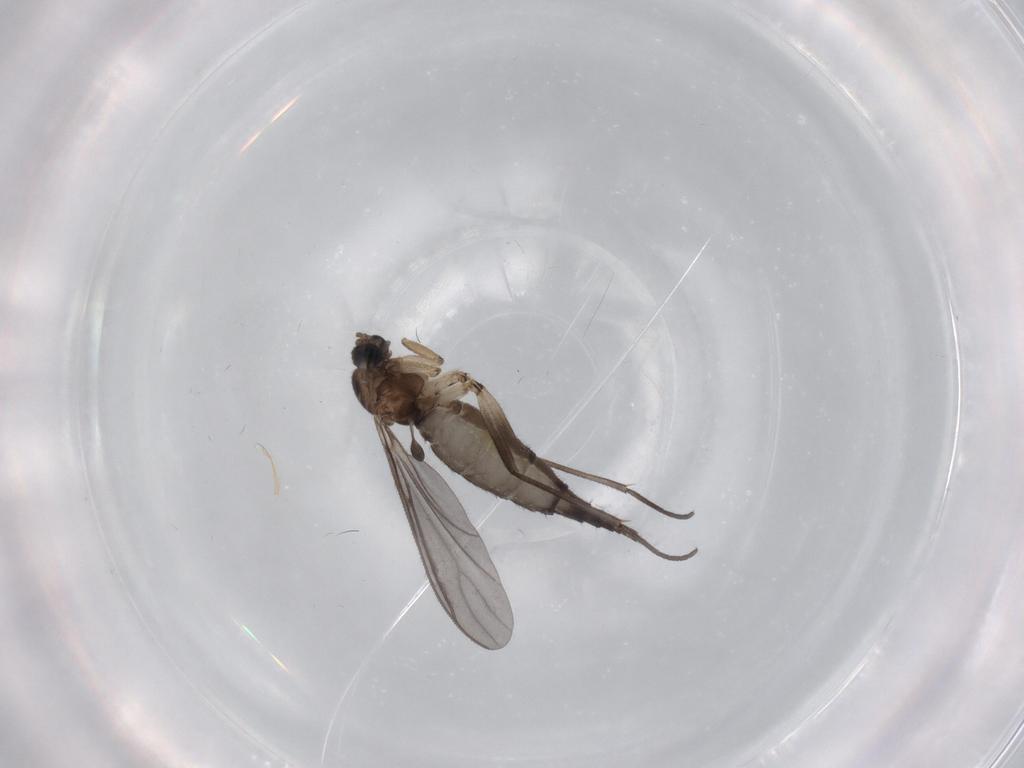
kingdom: Animalia
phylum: Arthropoda
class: Insecta
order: Diptera
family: Sciaridae
